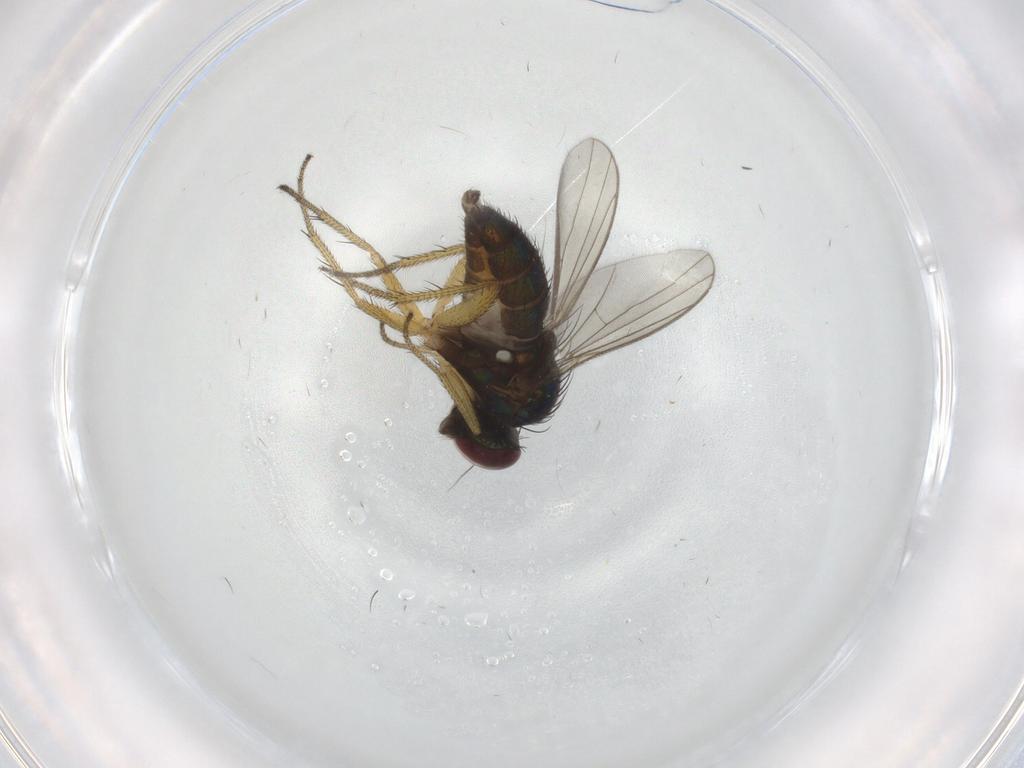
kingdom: Animalia
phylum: Arthropoda
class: Insecta
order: Diptera
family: Dolichopodidae
